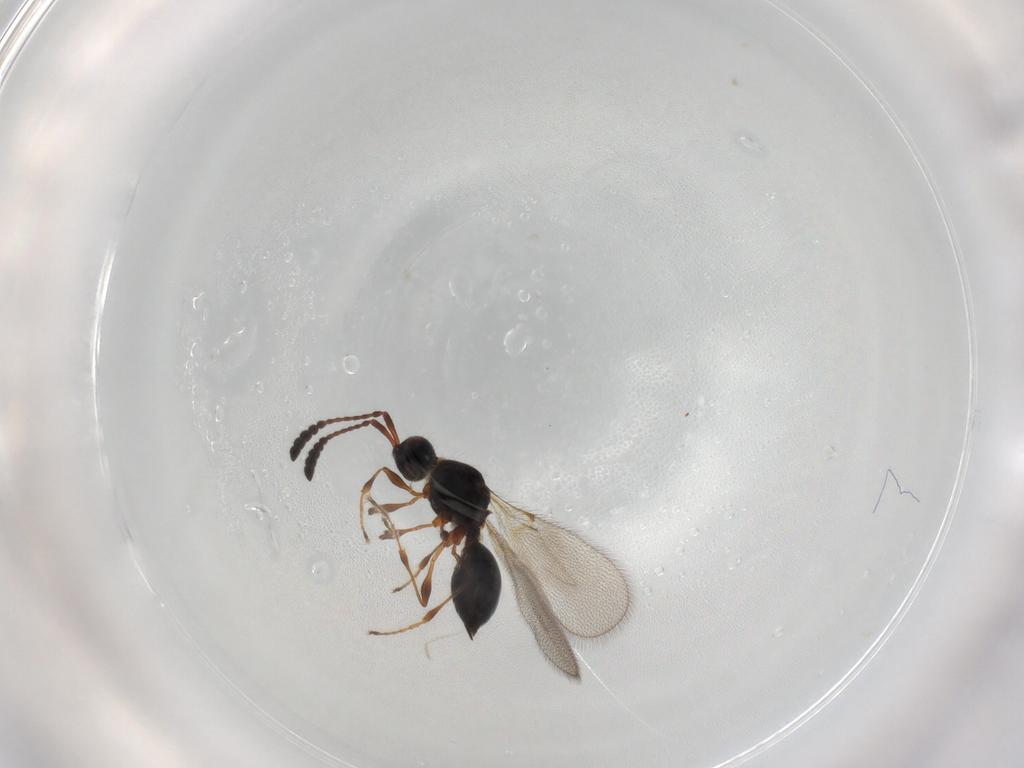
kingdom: Animalia
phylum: Arthropoda
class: Insecta
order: Hymenoptera
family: Diapriidae
